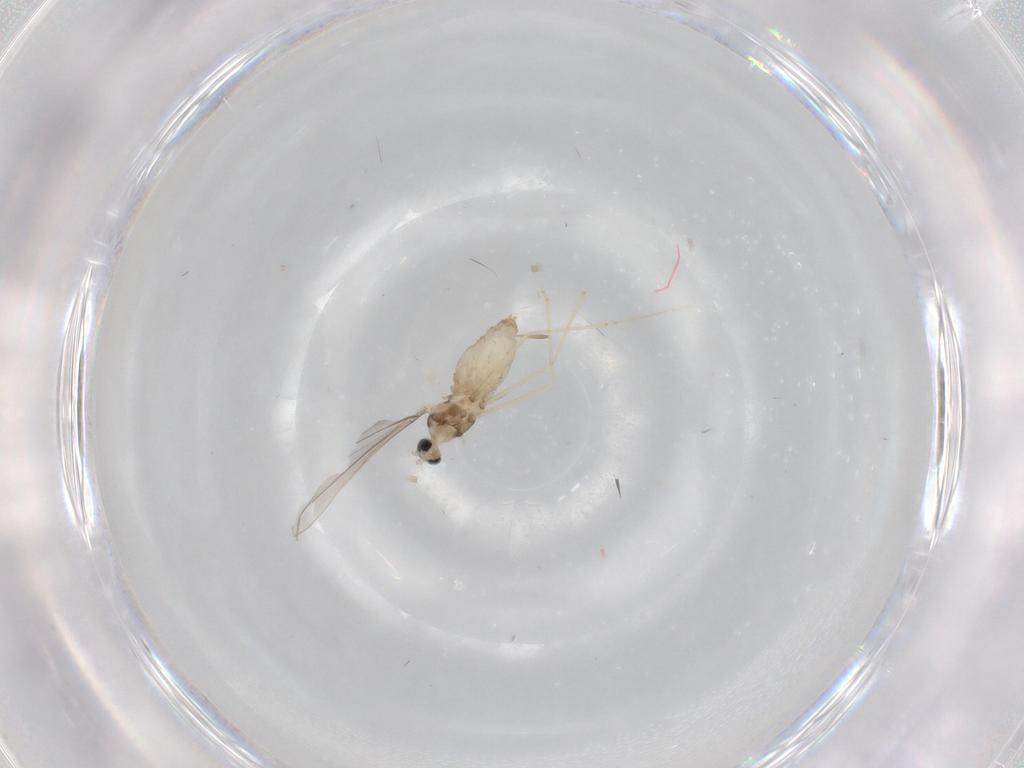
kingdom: Animalia
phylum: Arthropoda
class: Insecta
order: Diptera
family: Cecidomyiidae
